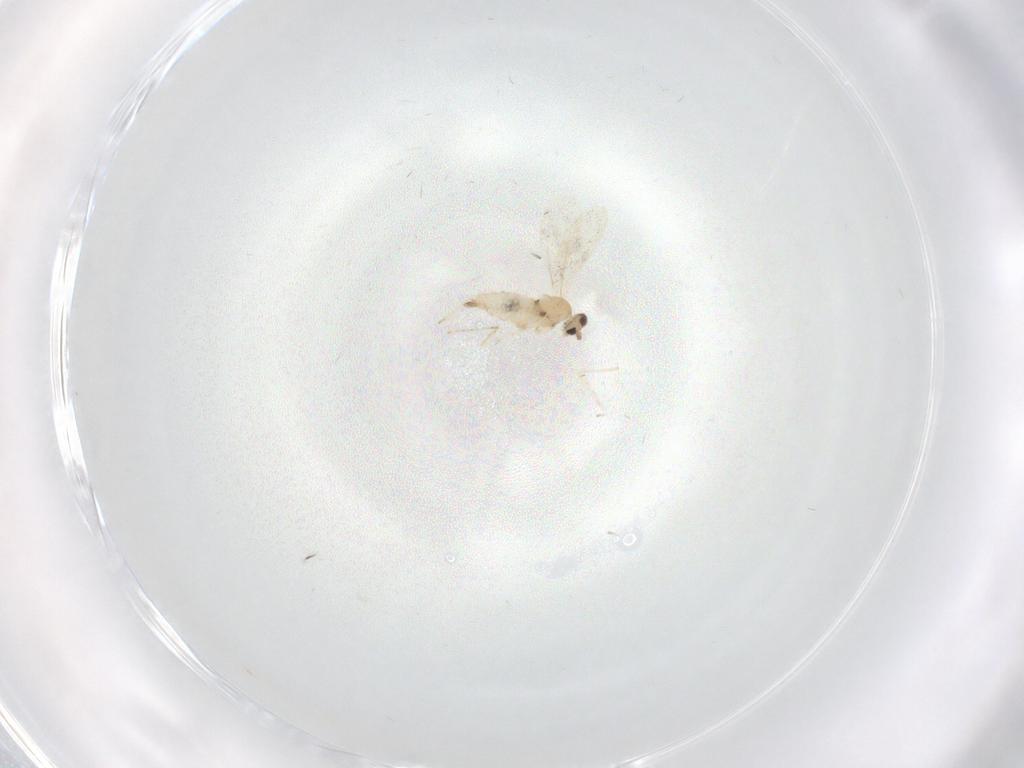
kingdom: Animalia
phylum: Arthropoda
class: Insecta
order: Diptera
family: Cecidomyiidae
